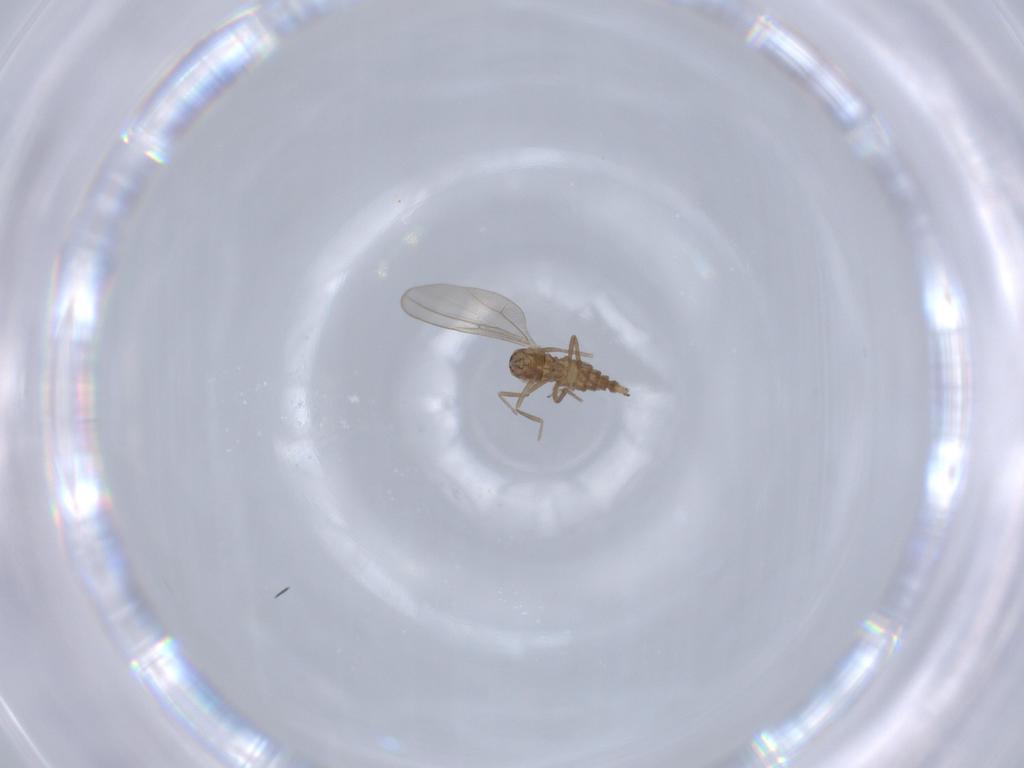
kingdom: Animalia
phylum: Arthropoda
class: Insecta
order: Diptera
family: Cecidomyiidae
